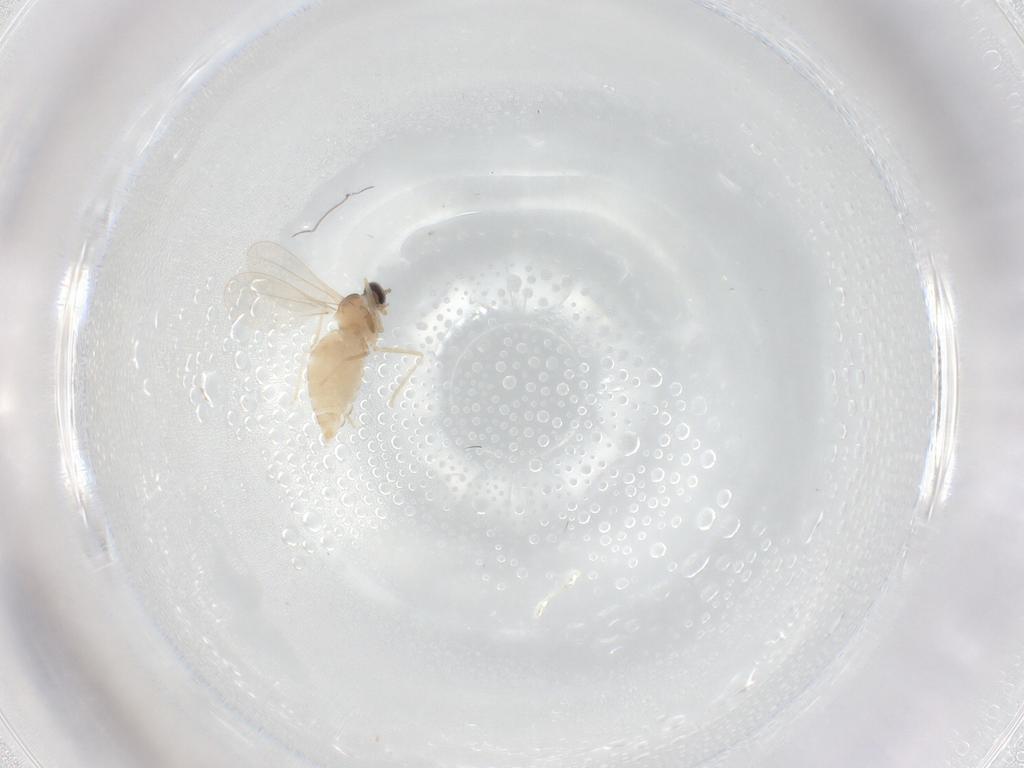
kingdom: Animalia
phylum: Arthropoda
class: Insecta
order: Diptera
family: Cecidomyiidae
